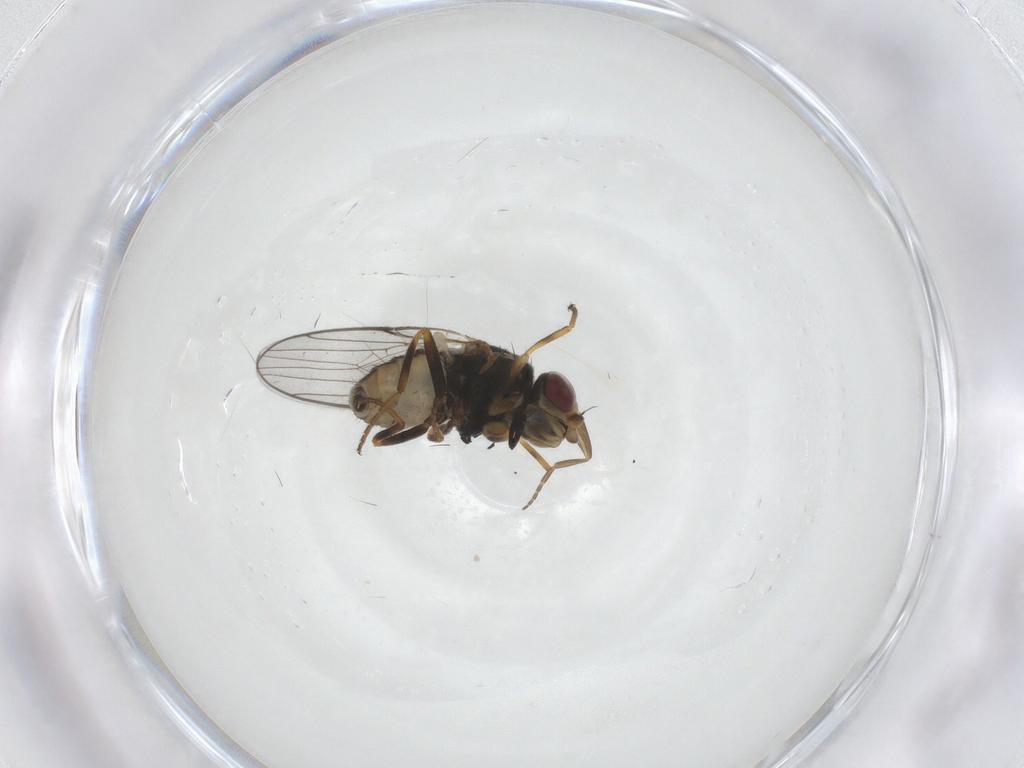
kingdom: Animalia
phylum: Arthropoda
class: Insecta
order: Diptera
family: Chloropidae
